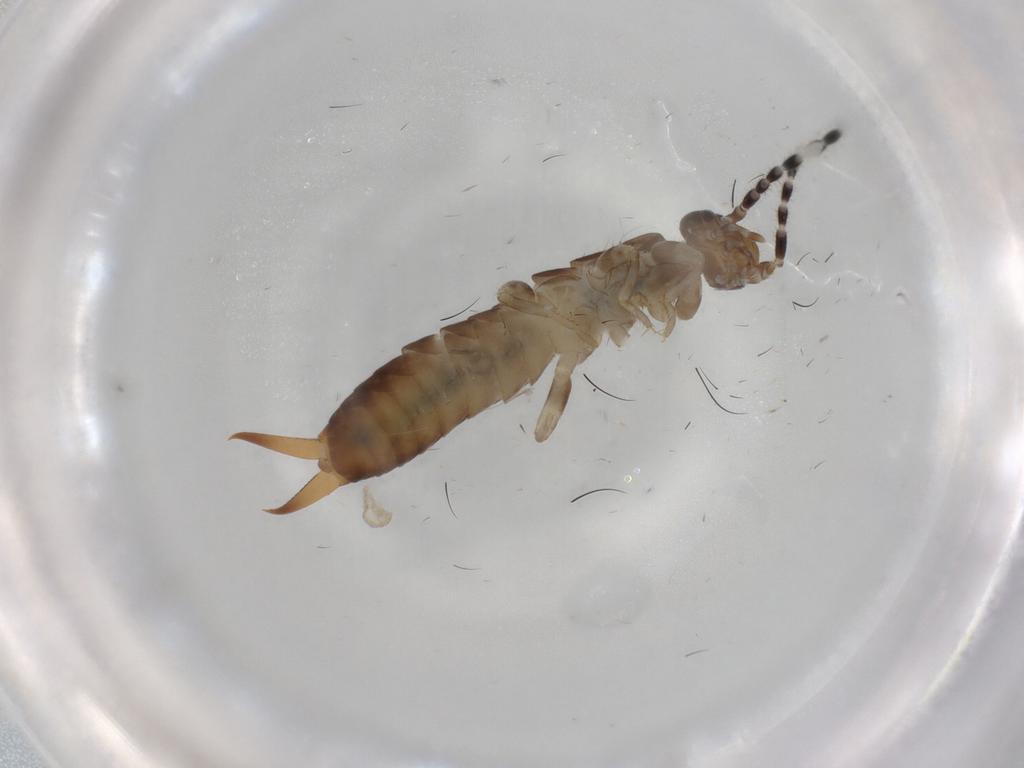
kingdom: Animalia
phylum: Arthropoda
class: Insecta
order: Dermaptera
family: Anisolabididae
